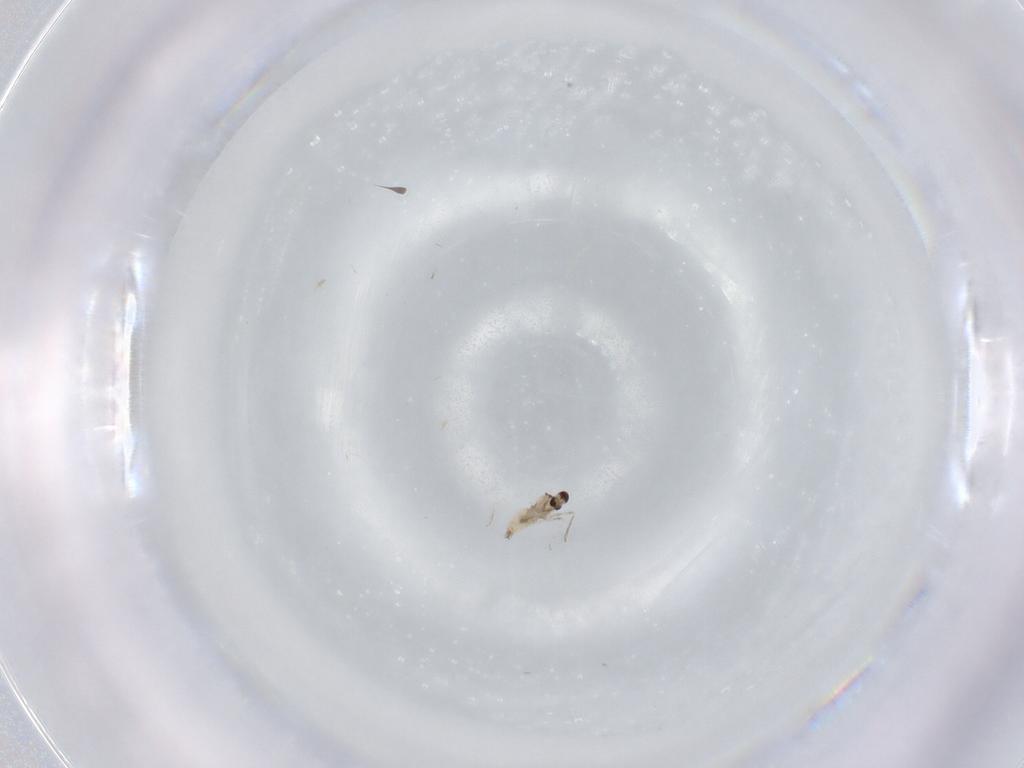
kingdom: Animalia
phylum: Arthropoda
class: Insecta
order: Diptera
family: Cecidomyiidae
